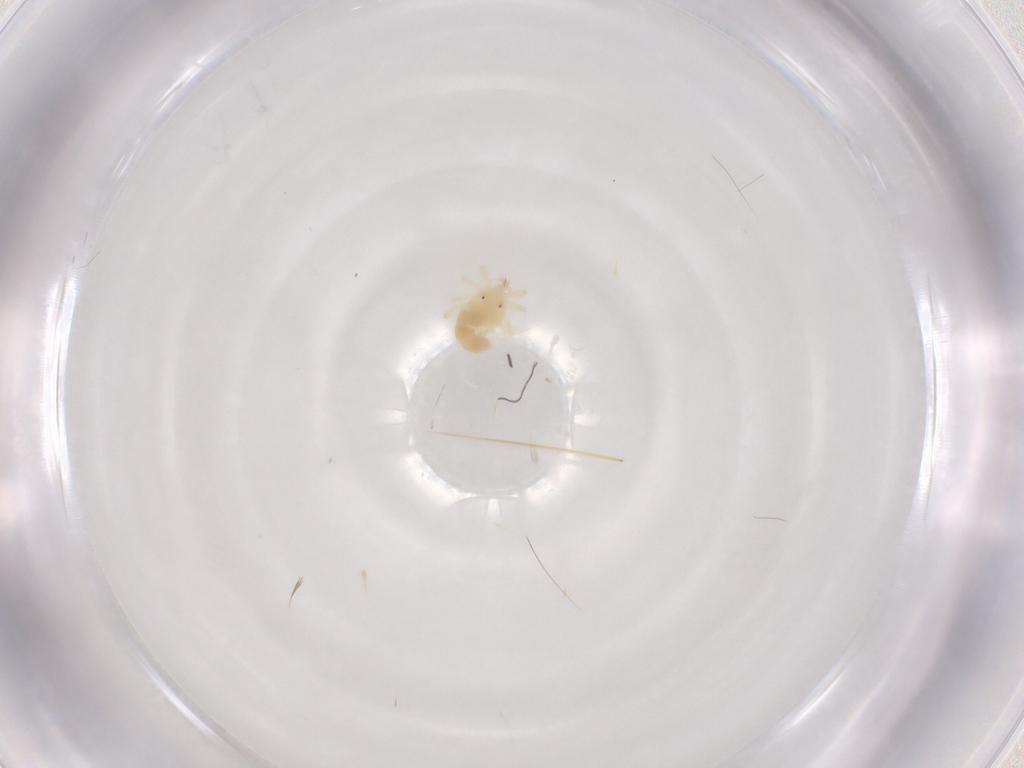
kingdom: Animalia
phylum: Arthropoda
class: Arachnida
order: Trombidiformes
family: Anystidae
